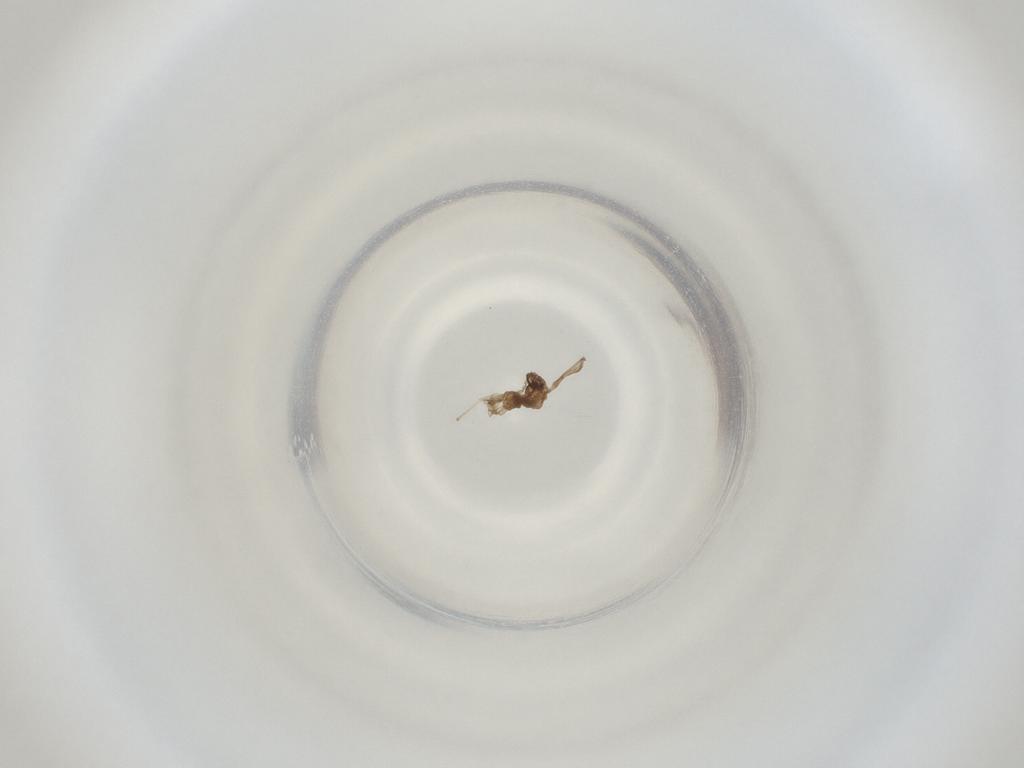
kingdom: Animalia
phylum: Arthropoda
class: Insecta
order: Diptera
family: Cecidomyiidae
